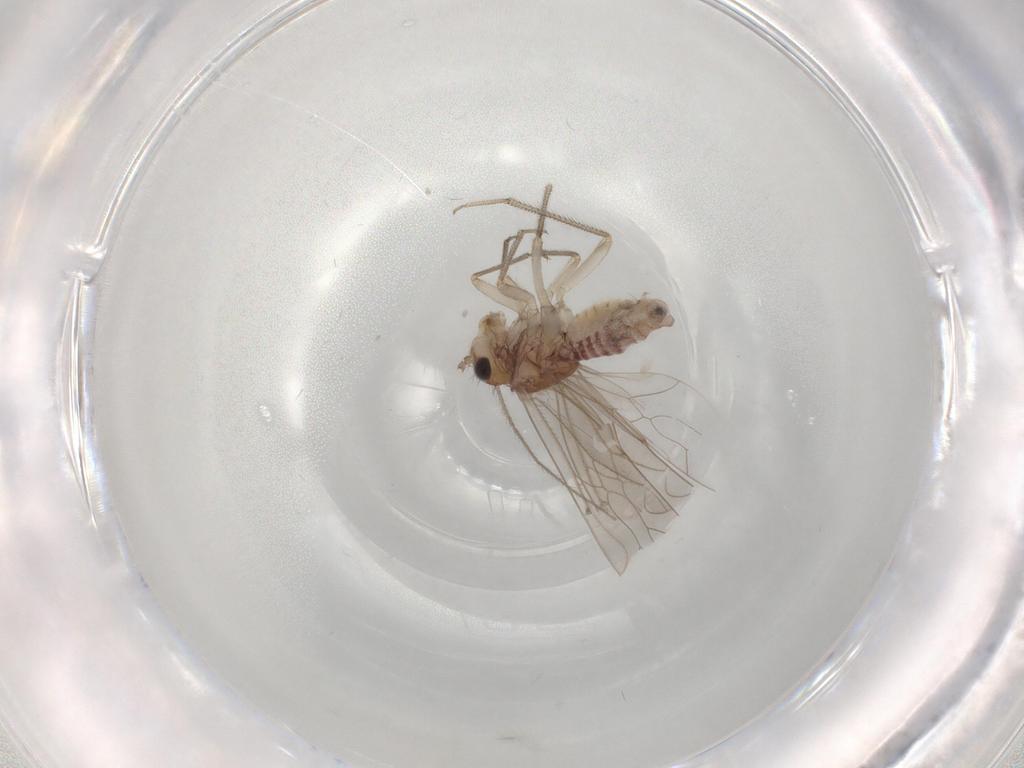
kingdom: Animalia
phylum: Arthropoda
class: Insecta
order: Psocodea
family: Caeciliusidae
